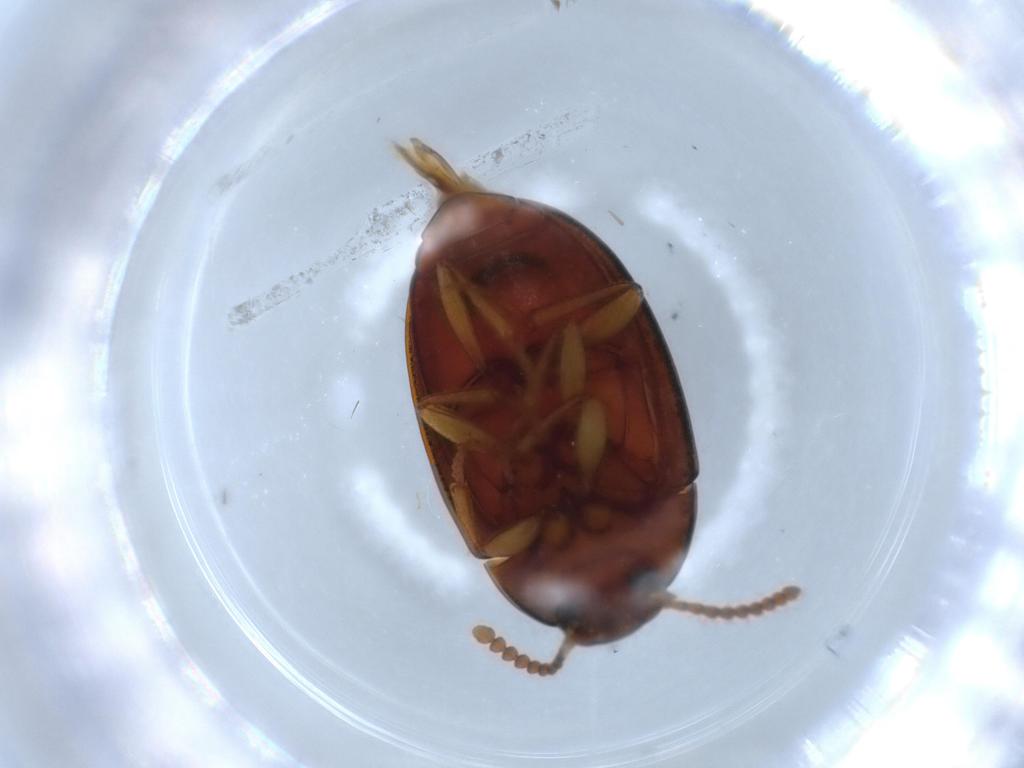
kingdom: Animalia
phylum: Arthropoda
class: Insecta
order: Coleoptera
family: Tenebrionidae
